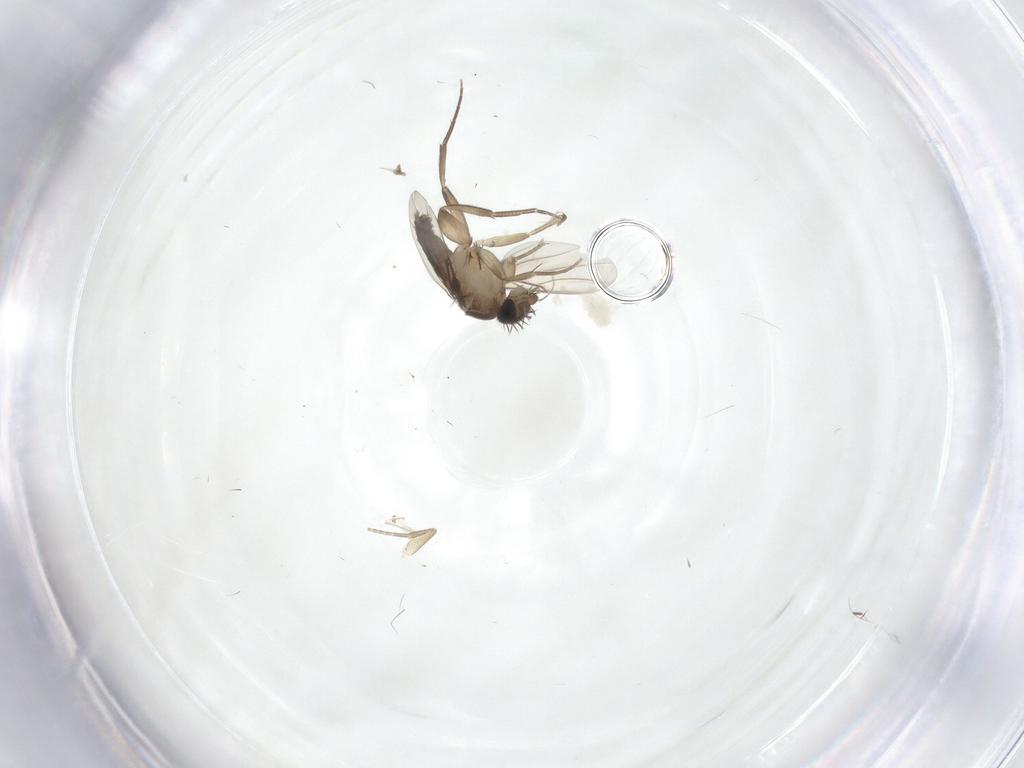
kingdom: Animalia
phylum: Arthropoda
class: Insecta
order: Diptera
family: Phoridae
